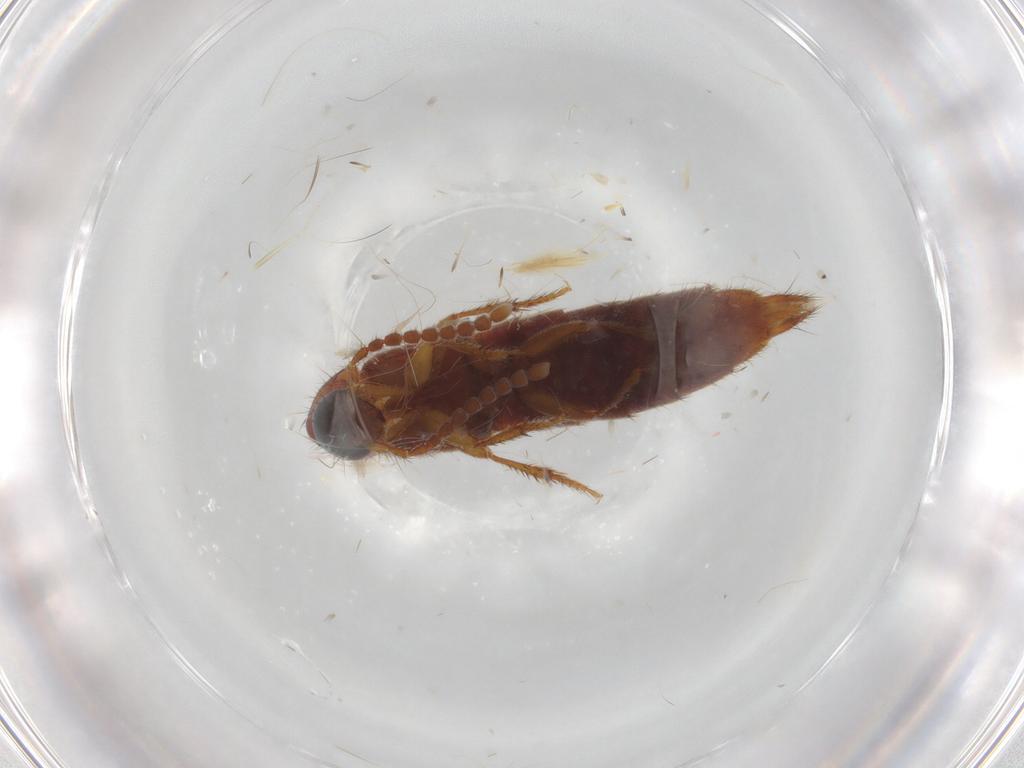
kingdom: Animalia
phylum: Arthropoda
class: Insecta
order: Coleoptera
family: Staphylinidae
